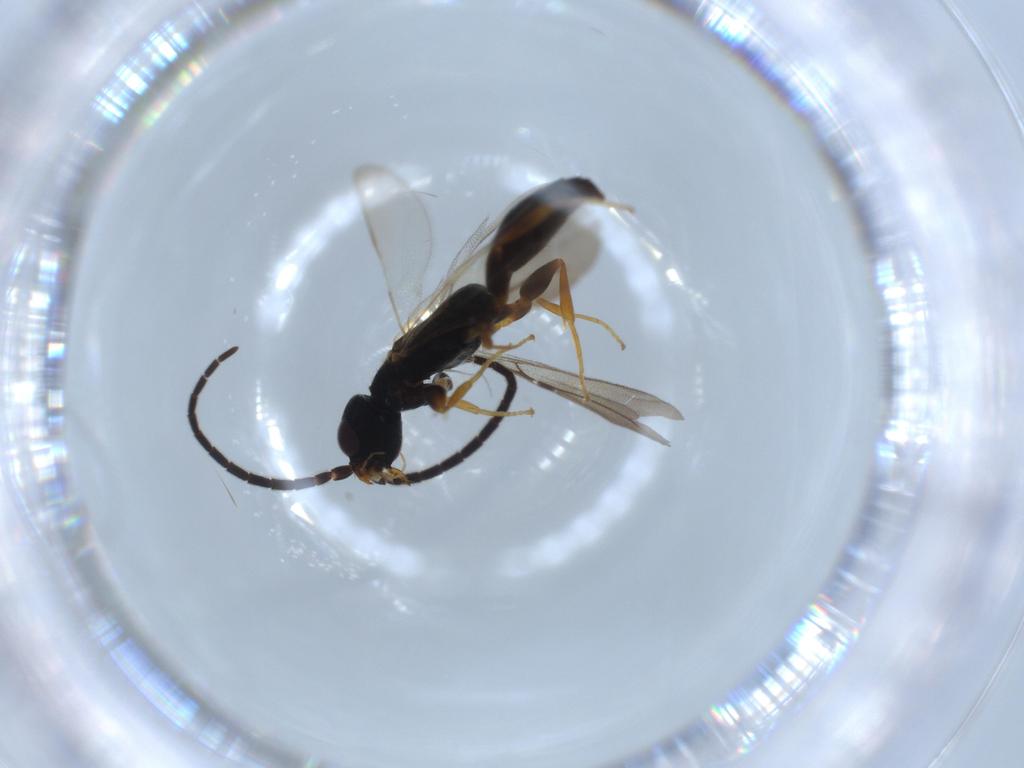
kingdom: Animalia
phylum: Arthropoda
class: Insecta
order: Hymenoptera
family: Bethylidae
